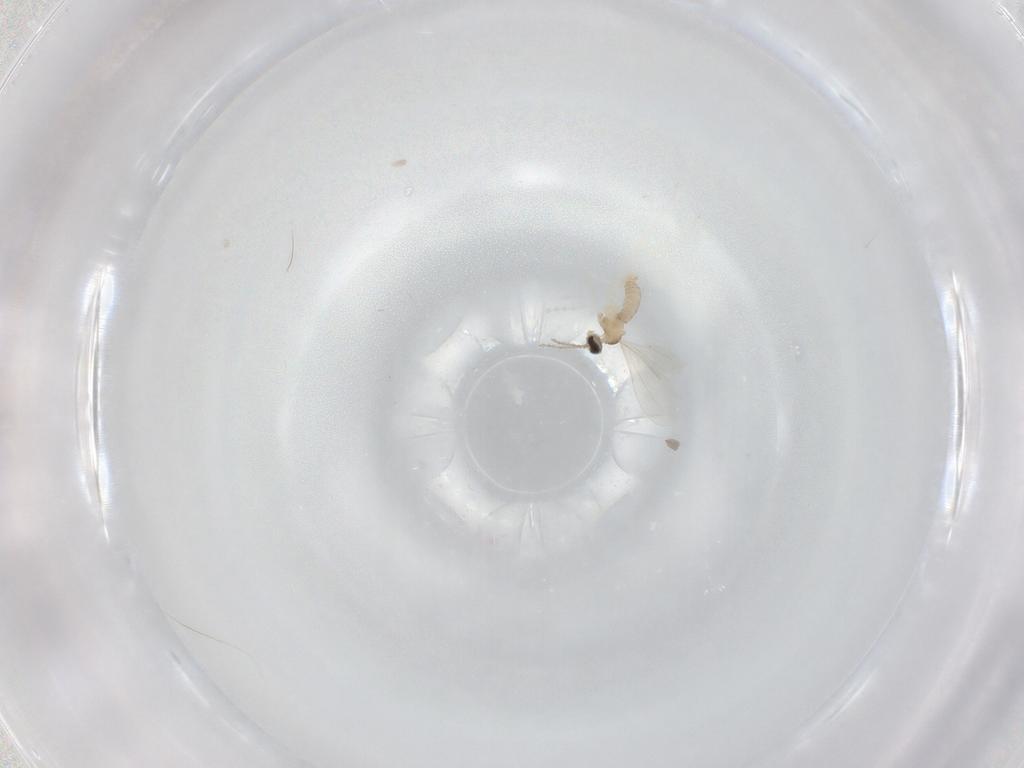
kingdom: Animalia
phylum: Arthropoda
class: Insecta
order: Diptera
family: Cecidomyiidae
